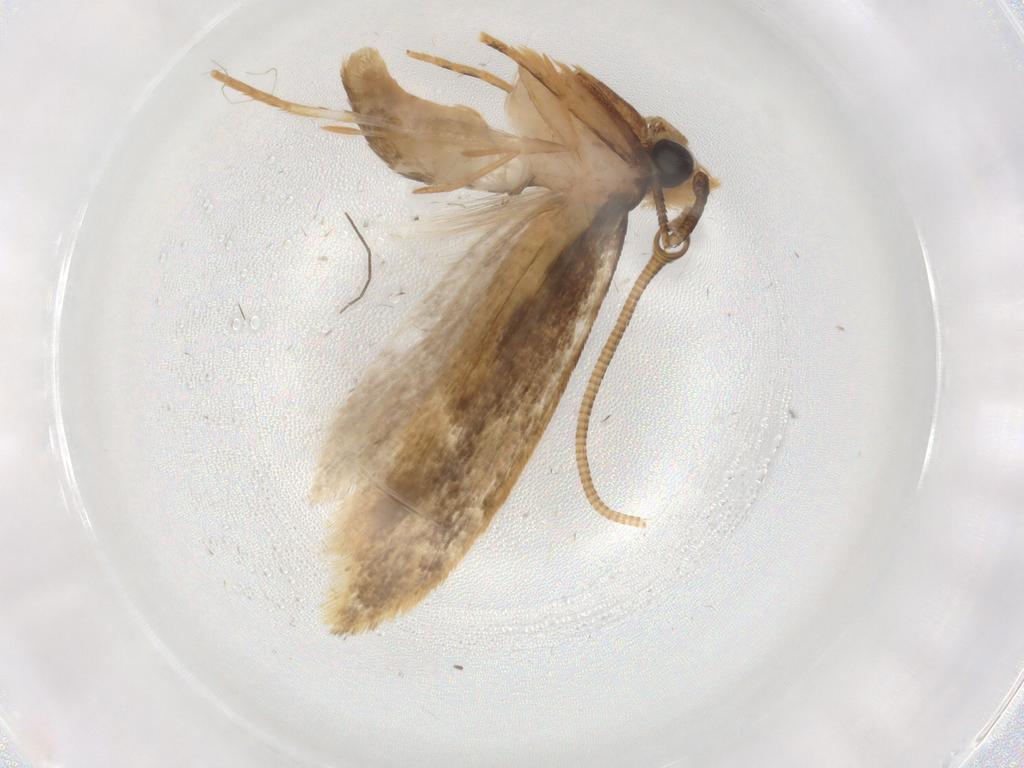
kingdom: Animalia
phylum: Arthropoda
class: Insecta
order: Lepidoptera
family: Tineidae
